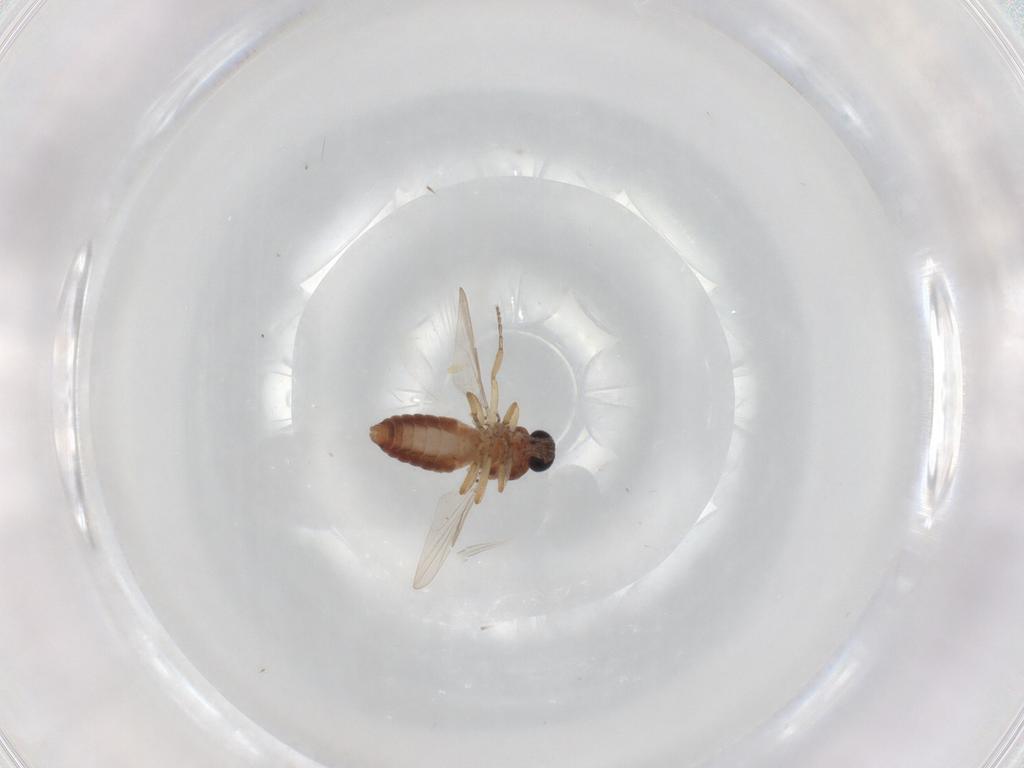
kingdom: Animalia
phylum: Arthropoda
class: Insecta
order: Diptera
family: Ceratopogonidae
